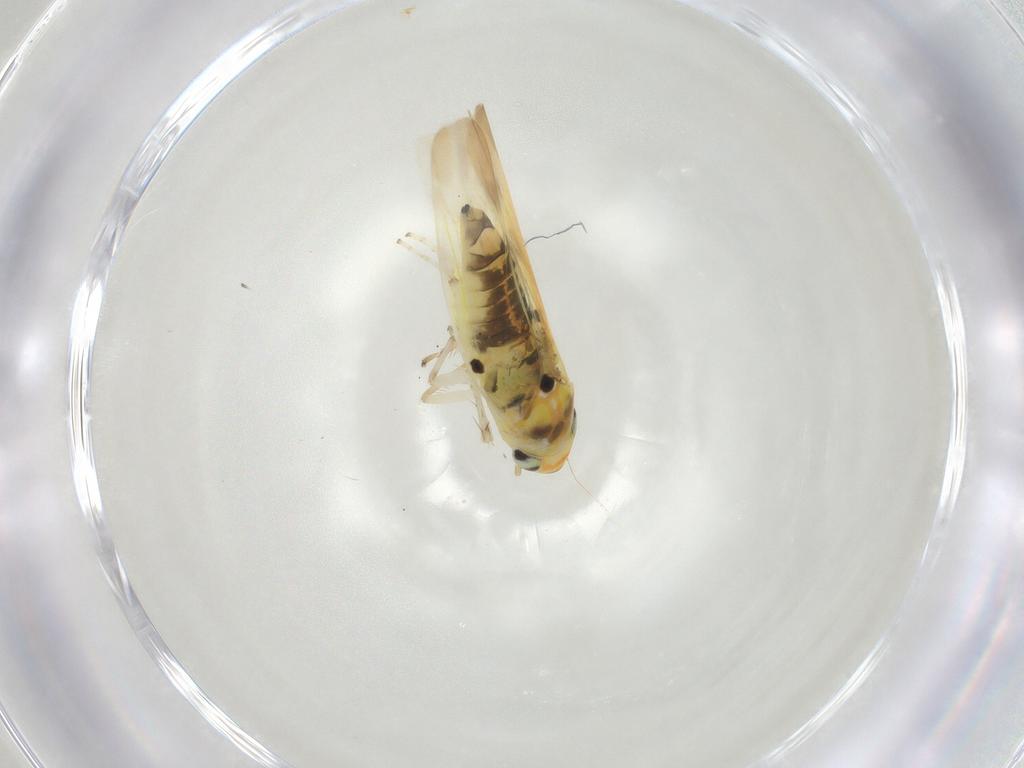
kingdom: Animalia
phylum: Arthropoda
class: Insecta
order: Hemiptera
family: Cicadellidae
